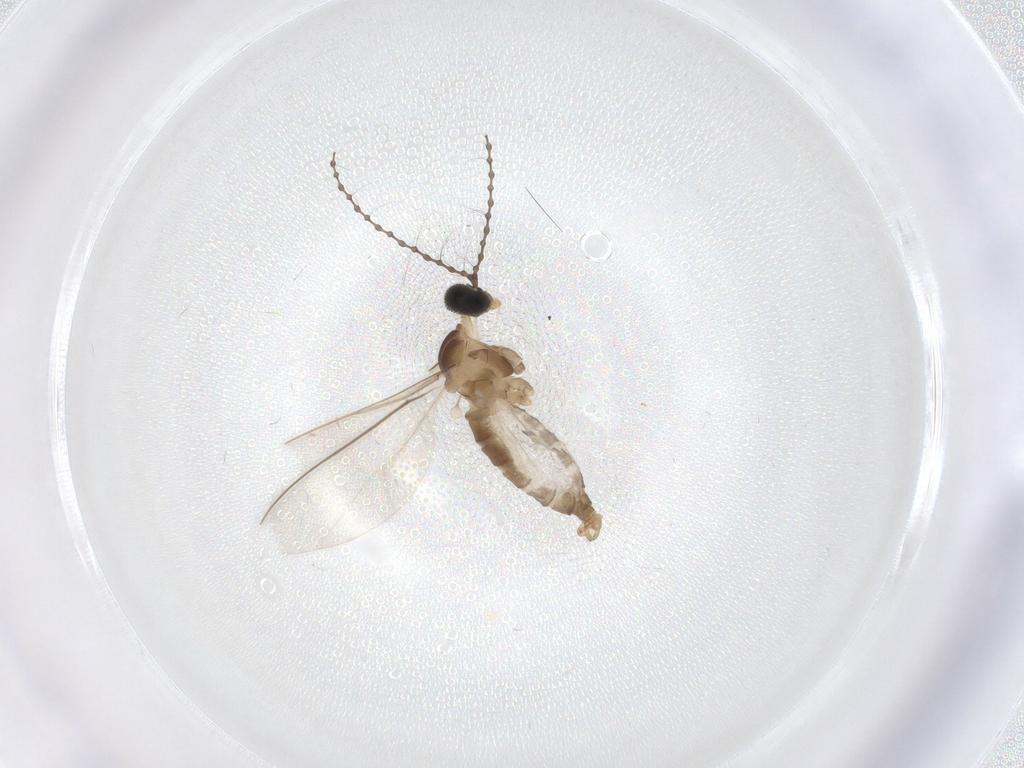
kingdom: Animalia
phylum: Arthropoda
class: Insecta
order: Diptera
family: Cecidomyiidae
